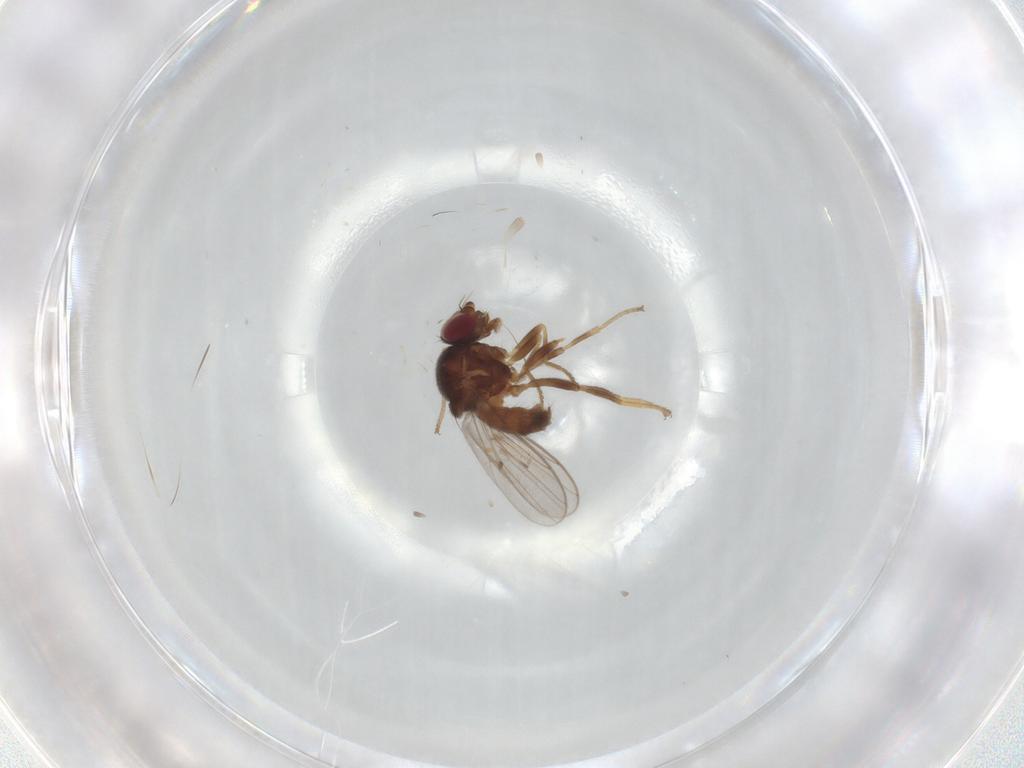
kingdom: Animalia
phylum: Arthropoda
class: Insecta
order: Diptera
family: Chloropidae
